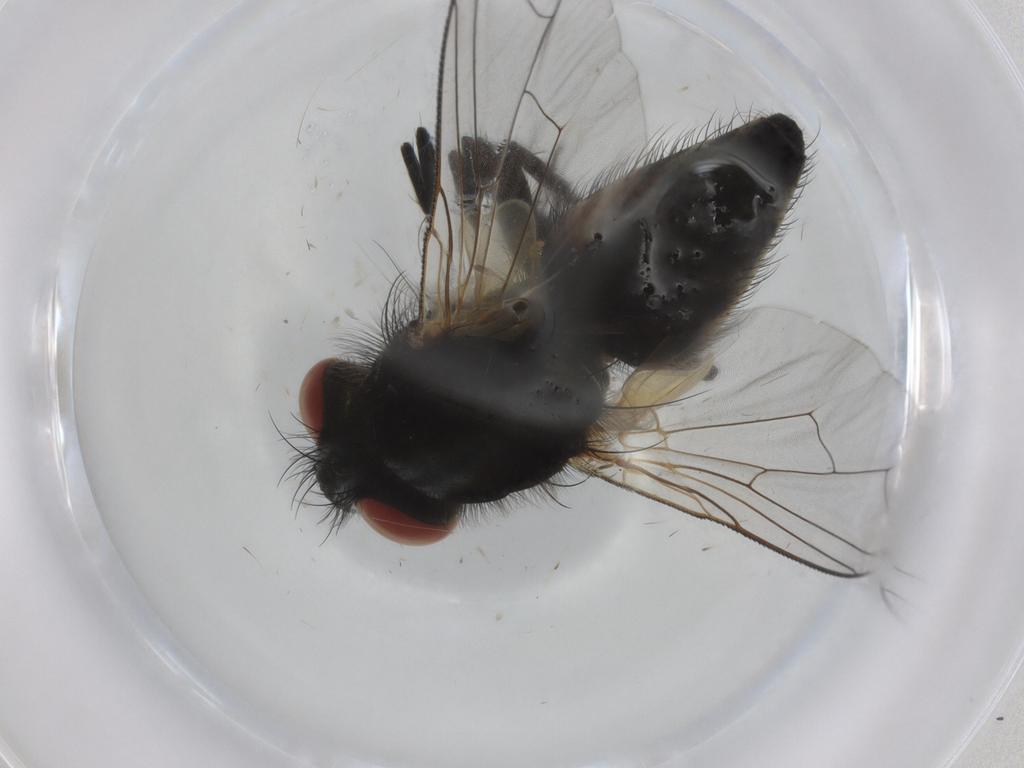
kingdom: Animalia
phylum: Arthropoda
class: Insecta
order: Diptera
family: Sarcophagidae
